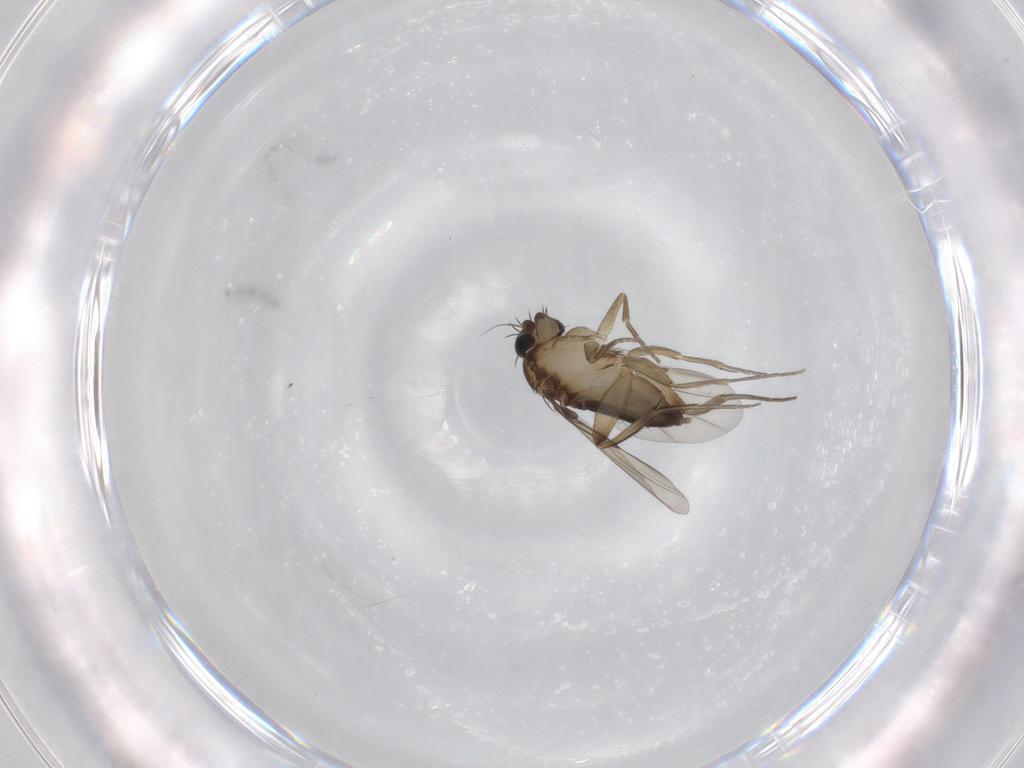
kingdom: Animalia
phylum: Arthropoda
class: Insecta
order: Diptera
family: Phoridae
